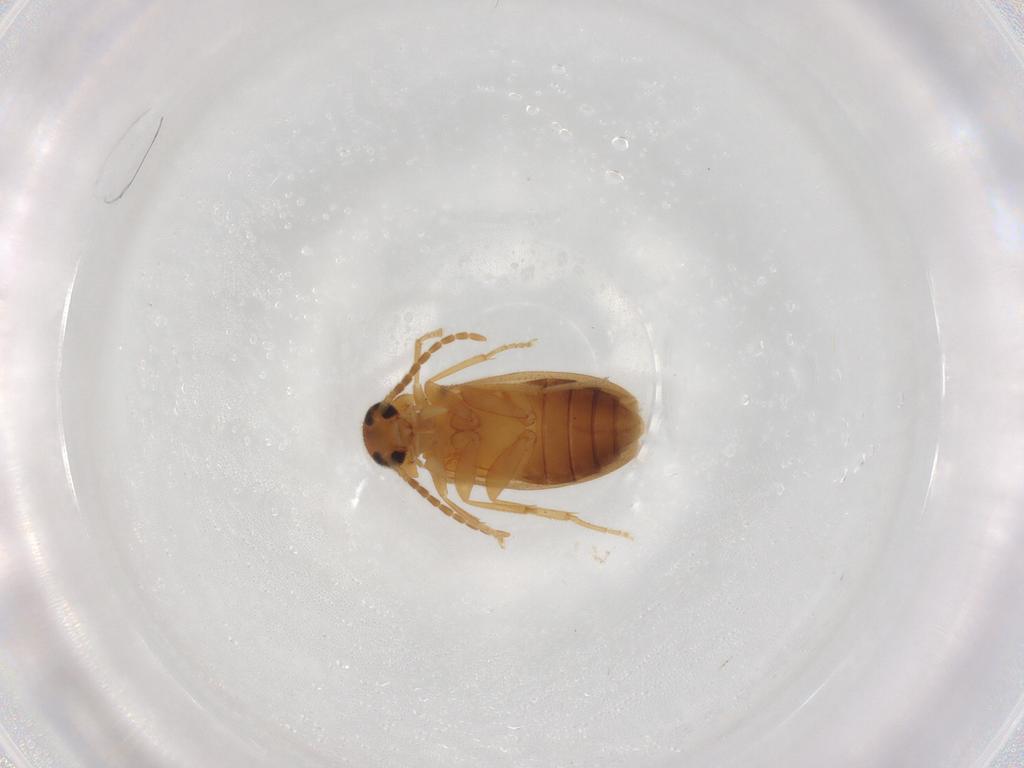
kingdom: Animalia
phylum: Arthropoda
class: Insecta
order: Coleoptera
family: Scraptiidae
